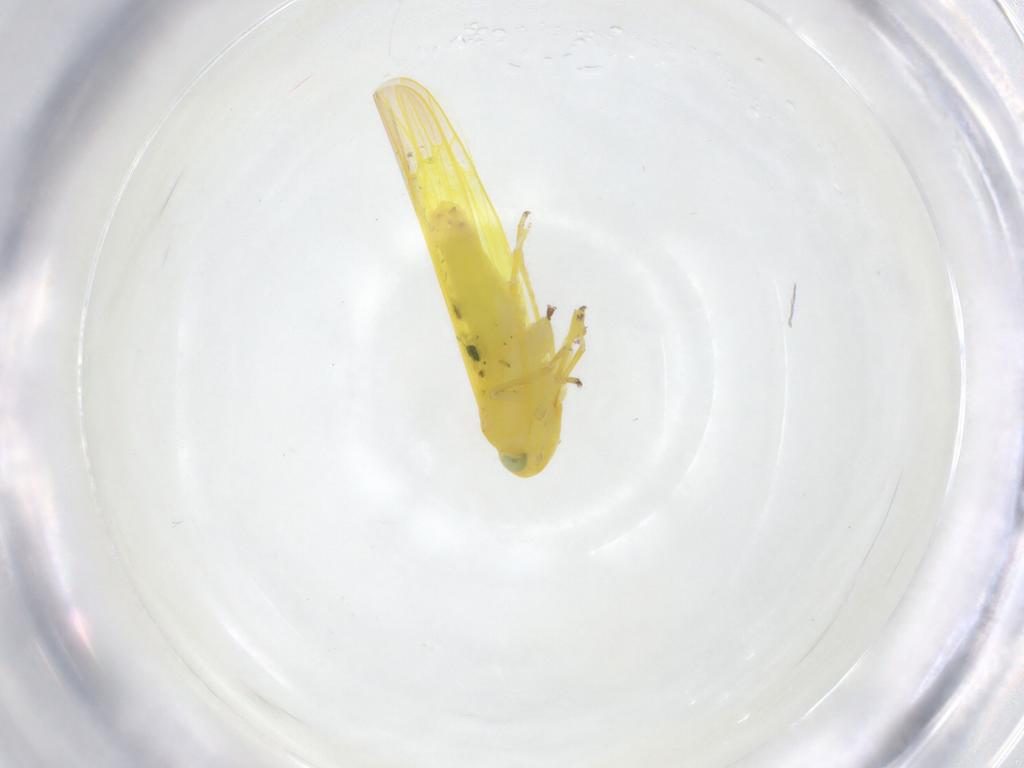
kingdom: Animalia
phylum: Arthropoda
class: Insecta
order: Hemiptera
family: Cicadellidae
